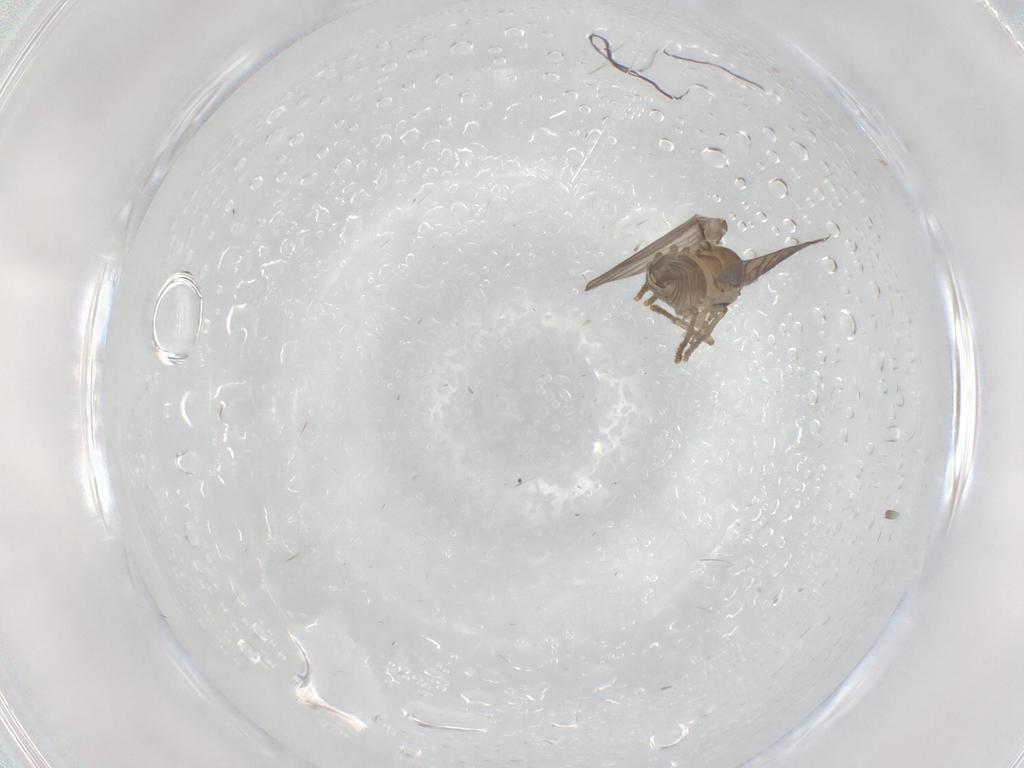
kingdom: Animalia
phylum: Arthropoda
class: Insecta
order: Diptera
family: Psychodidae
